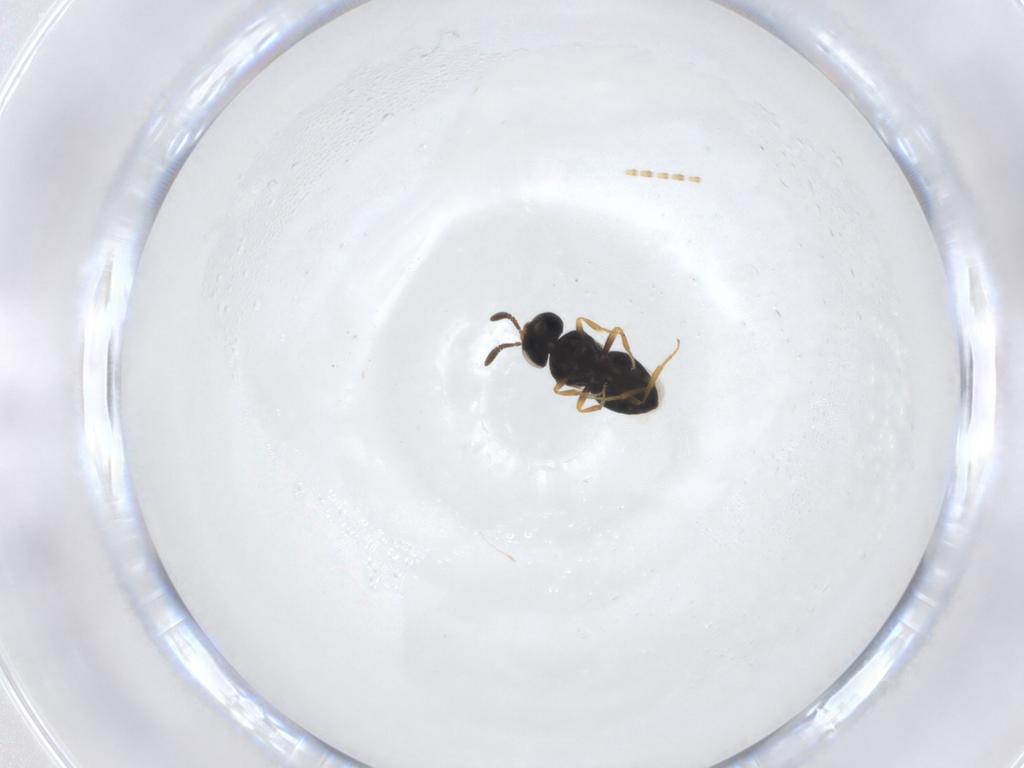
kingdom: Animalia
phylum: Arthropoda
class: Insecta
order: Hymenoptera
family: Scelionidae
